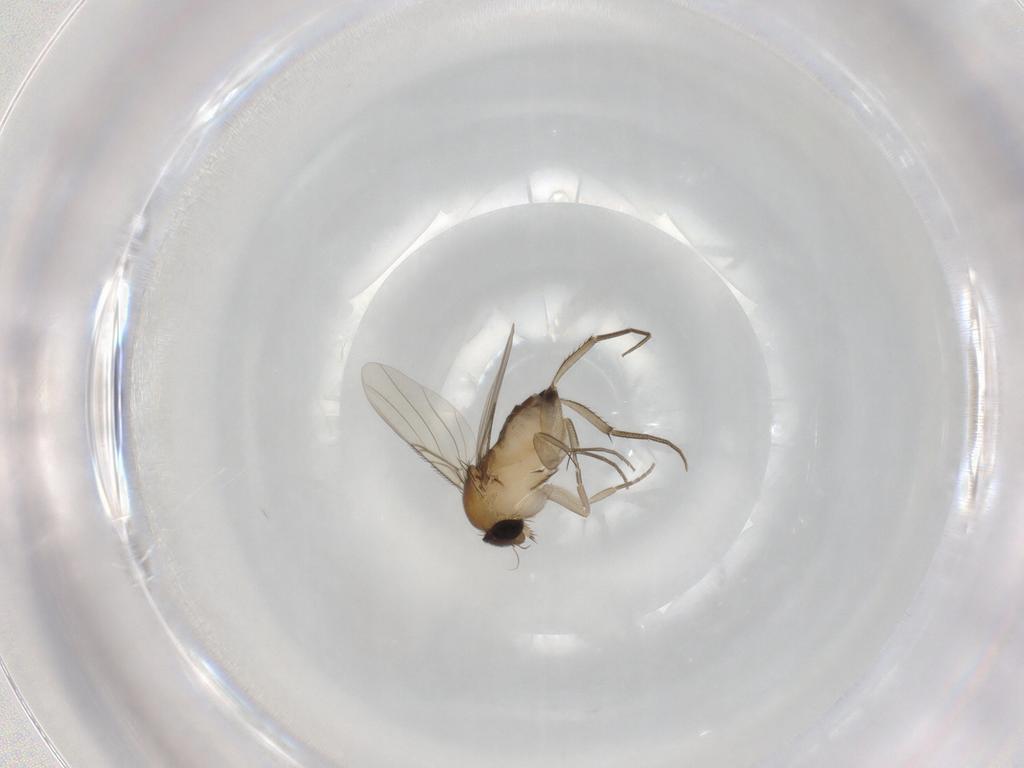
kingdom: Animalia
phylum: Arthropoda
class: Insecta
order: Diptera
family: Phoridae
